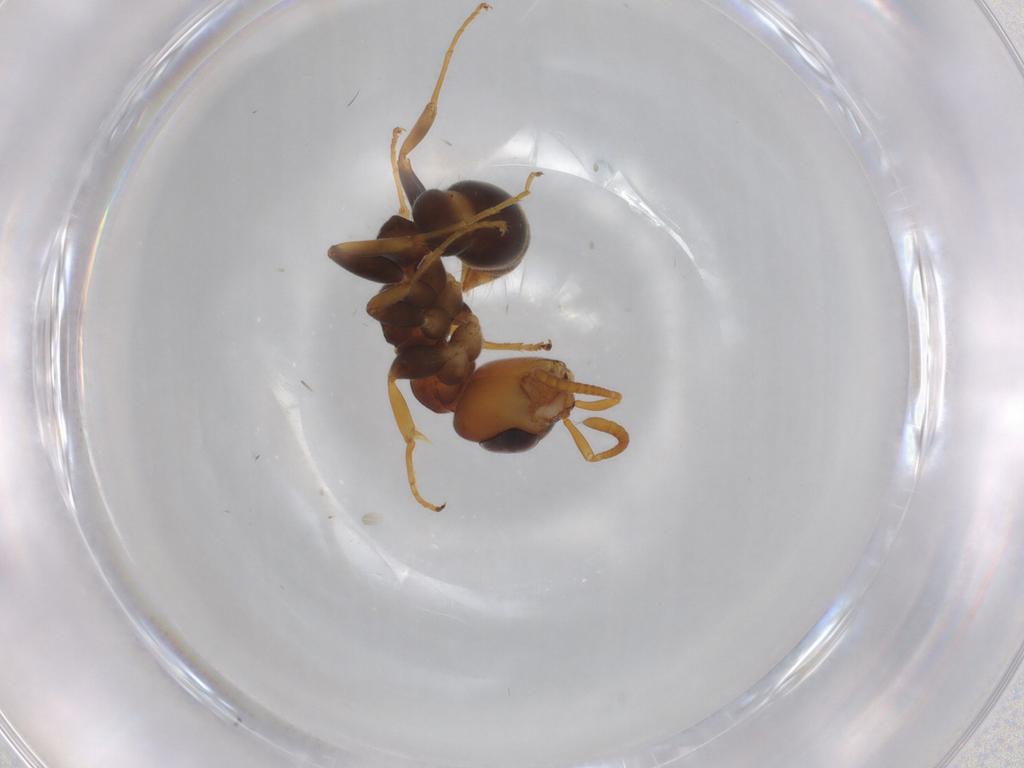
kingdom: Animalia
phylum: Arthropoda
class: Insecta
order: Hymenoptera
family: Formicidae
